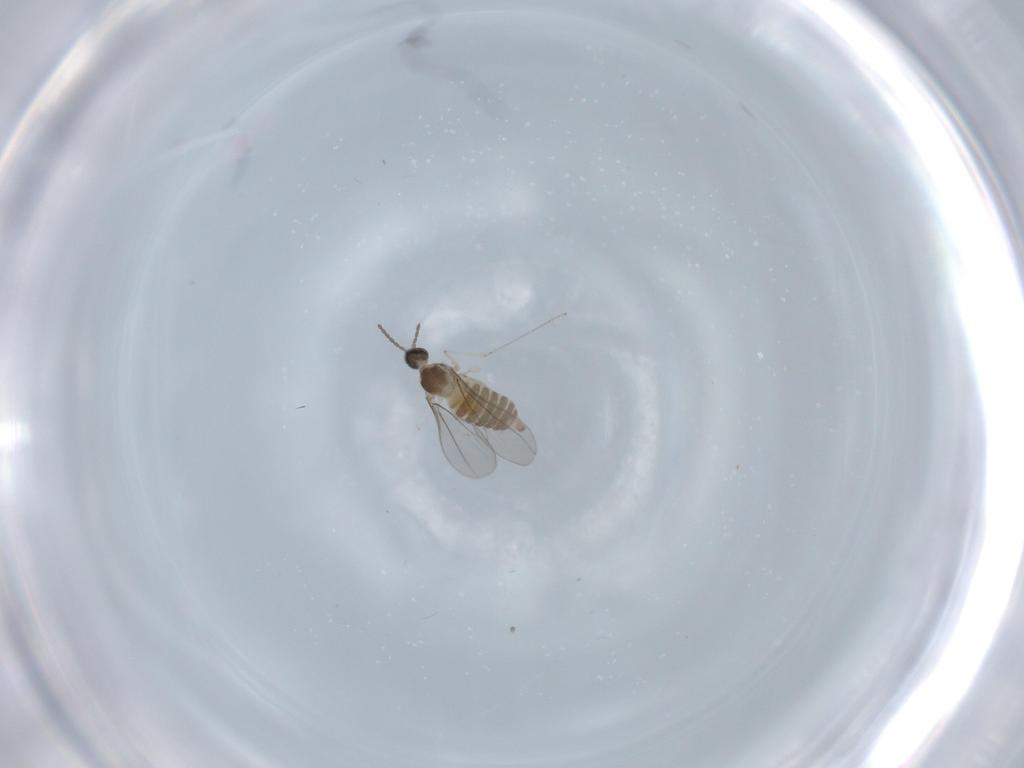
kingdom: Animalia
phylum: Arthropoda
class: Insecta
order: Diptera
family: Cecidomyiidae
